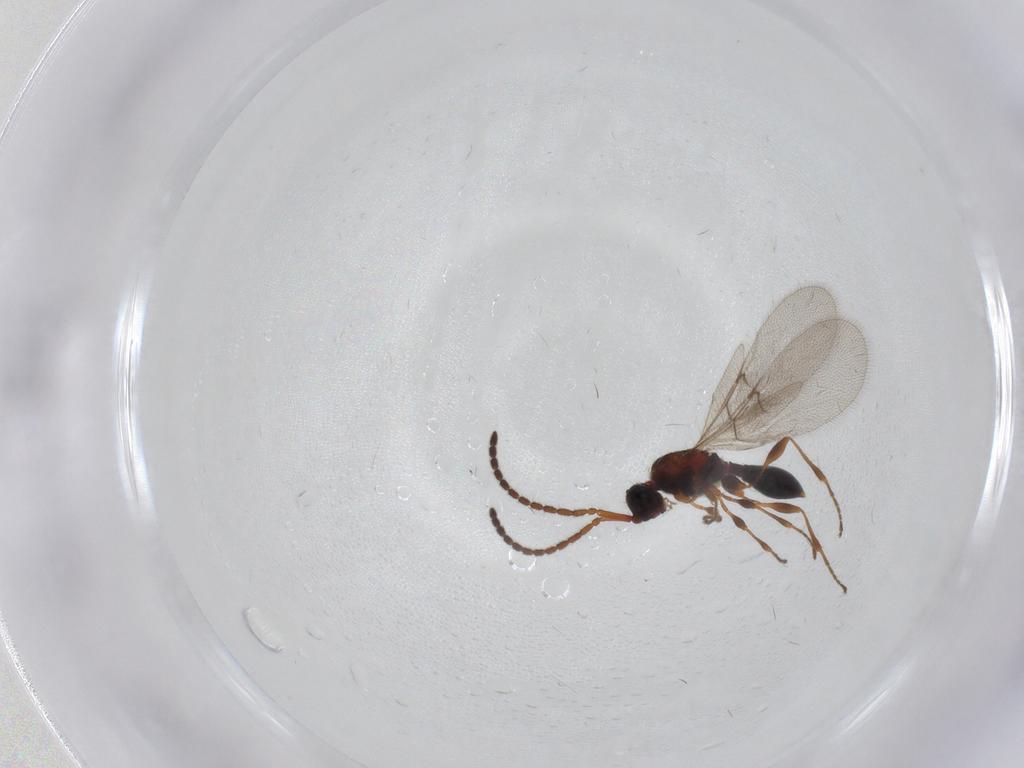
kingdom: Animalia
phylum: Arthropoda
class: Insecta
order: Hymenoptera
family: Diapriidae
